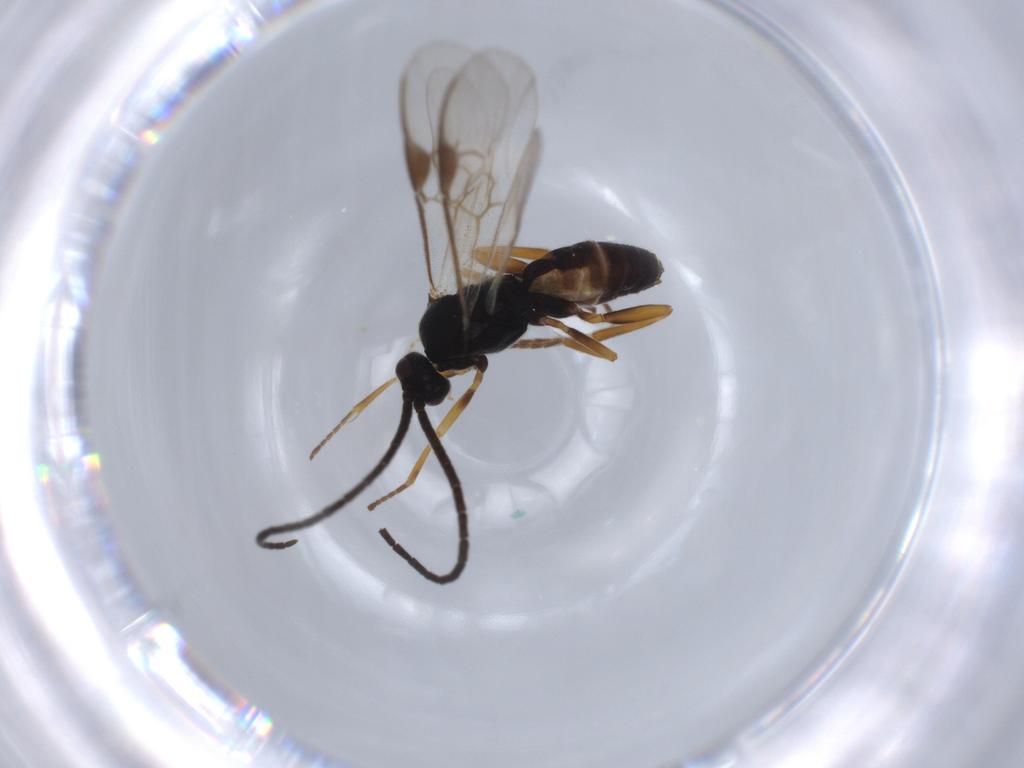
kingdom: Animalia
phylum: Arthropoda
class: Insecta
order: Hymenoptera
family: Braconidae
